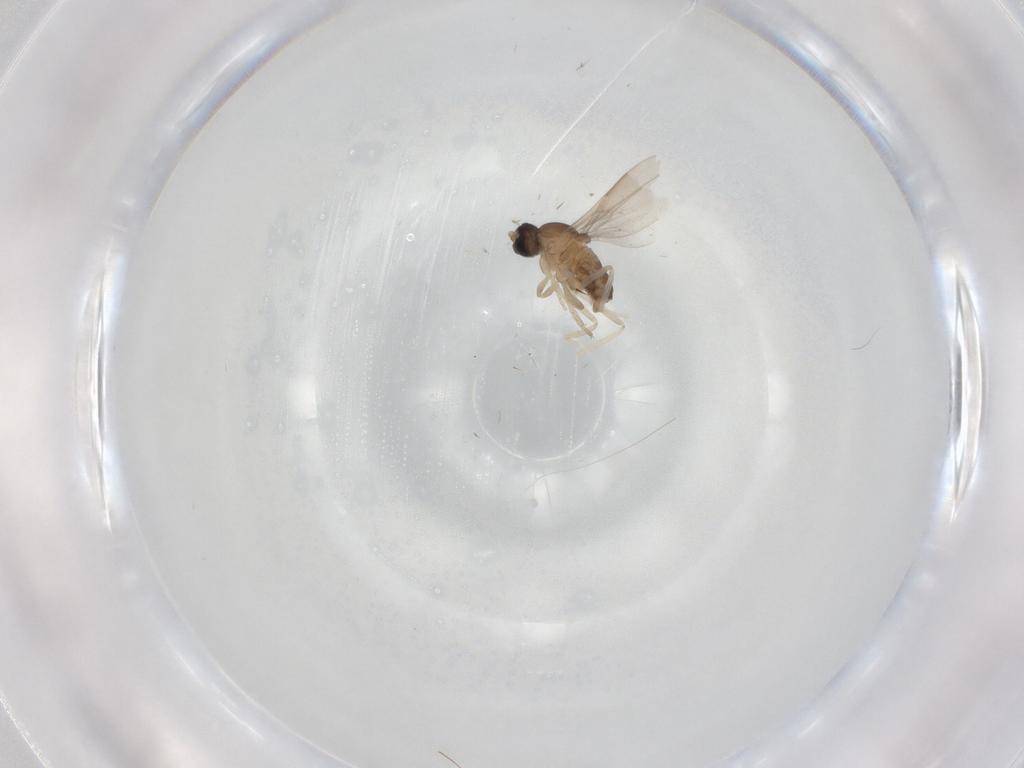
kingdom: Animalia
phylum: Arthropoda
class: Insecta
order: Diptera
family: Cecidomyiidae
